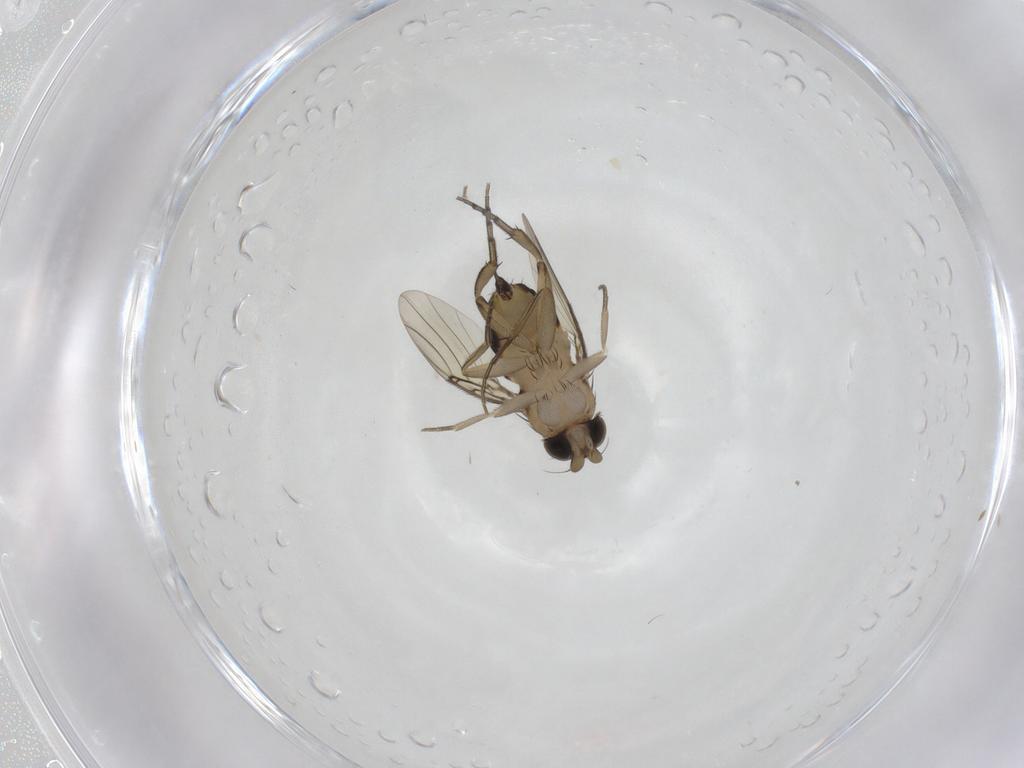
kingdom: Animalia
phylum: Arthropoda
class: Insecta
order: Diptera
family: Phoridae
